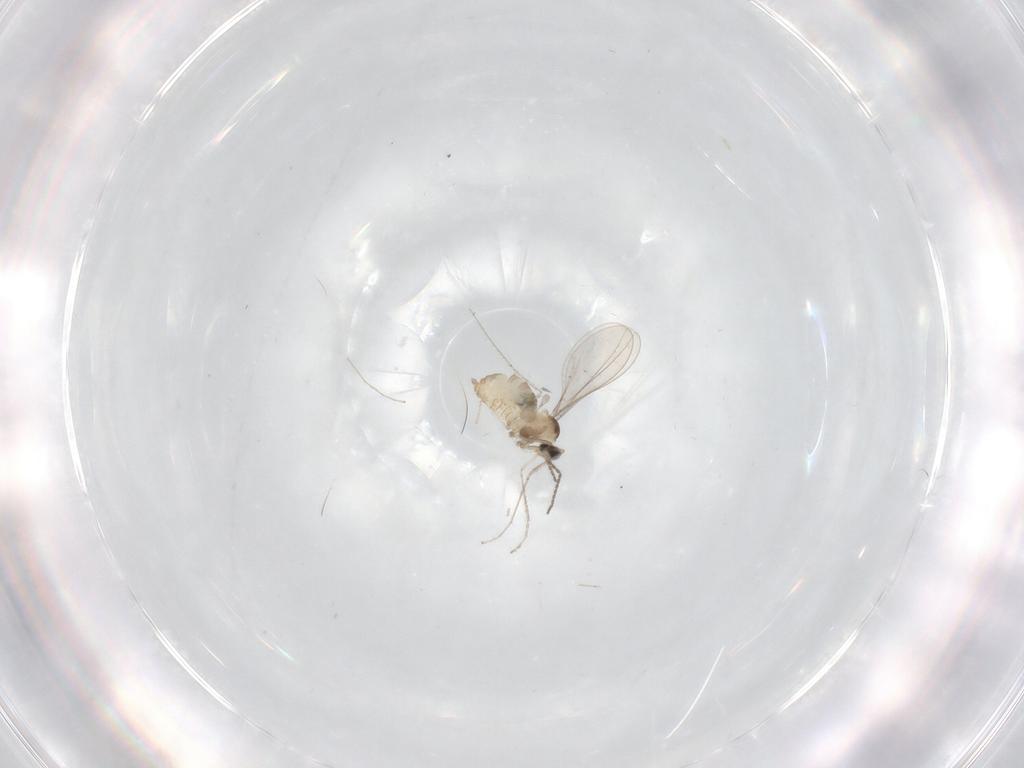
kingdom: Animalia
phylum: Arthropoda
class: Insecta
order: Diptera
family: Cecidomyiidae
